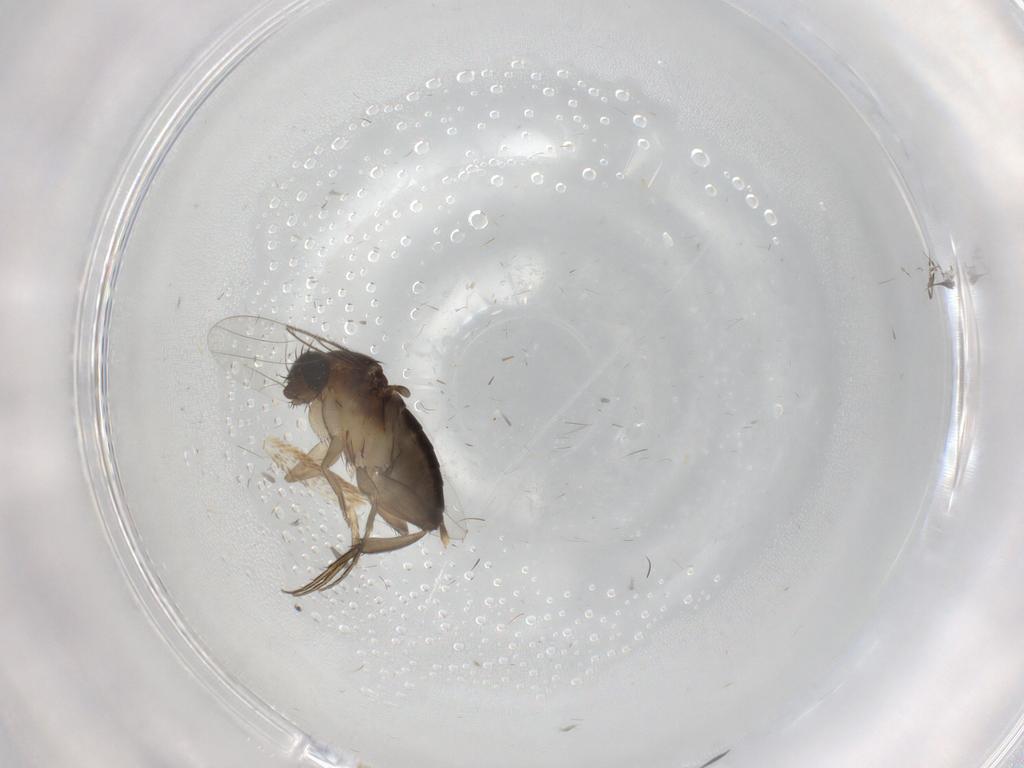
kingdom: Animalia
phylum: Arthropoda
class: Insecta
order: Diptera
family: Phoridae
